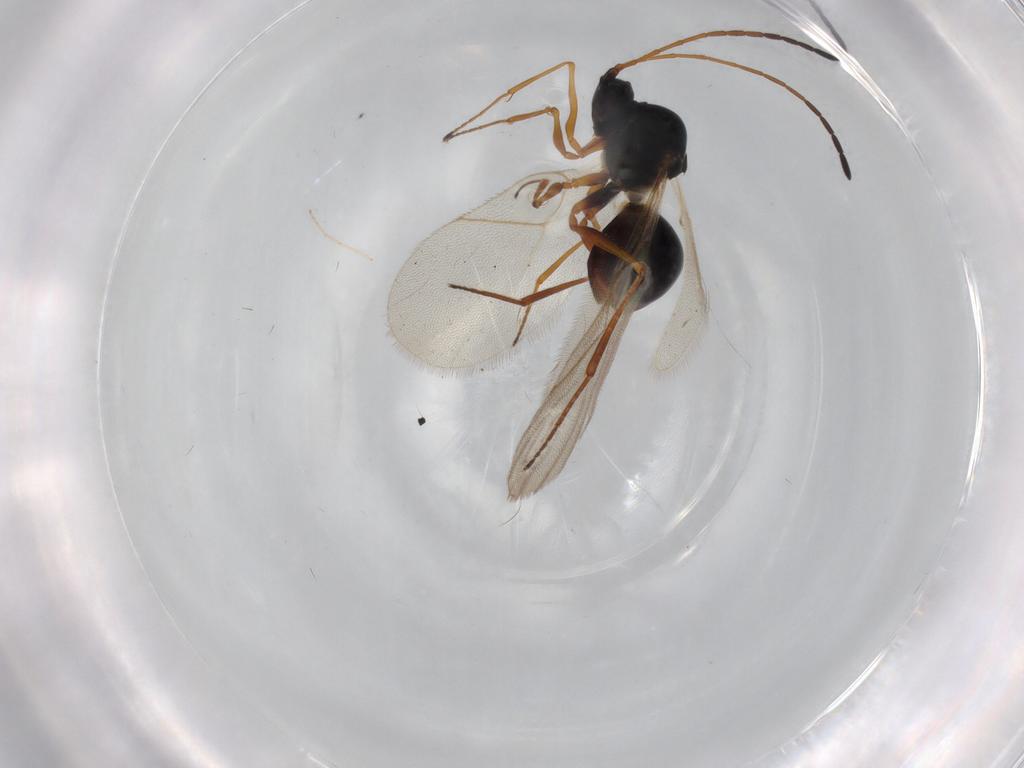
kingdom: Animalia
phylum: Arthropoda
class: Insecta
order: Hymenoptera
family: Figitidae
